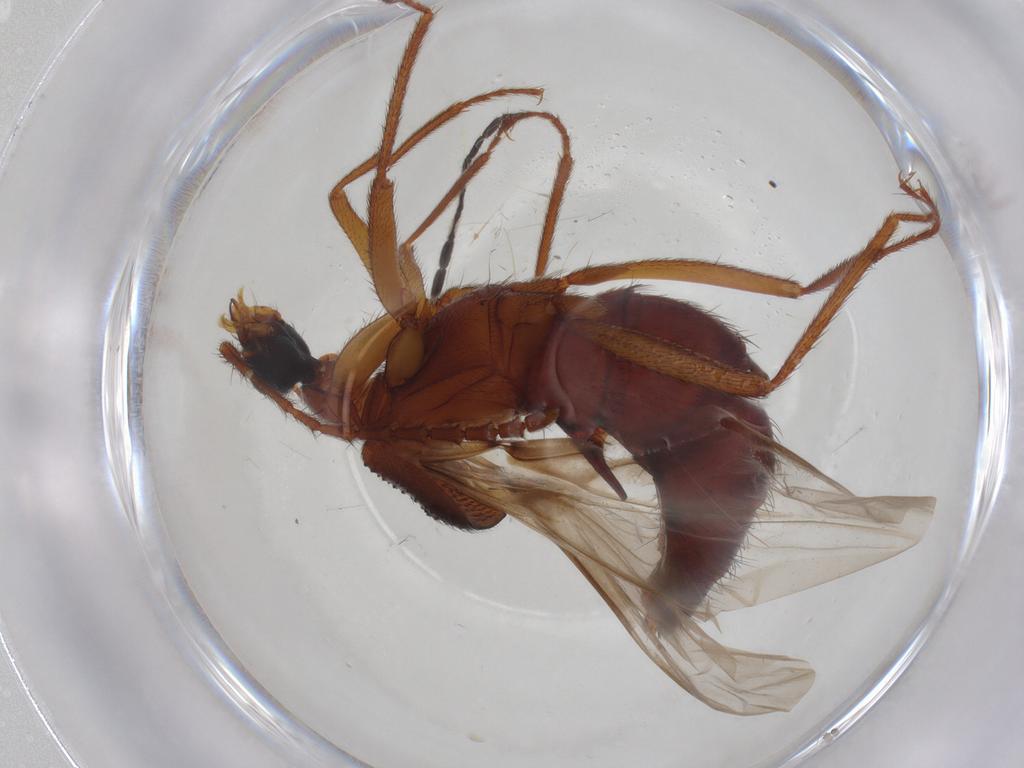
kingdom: Animalia
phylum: Arthropoda
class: Insecta
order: Coleoptera
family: Staphylinidae
